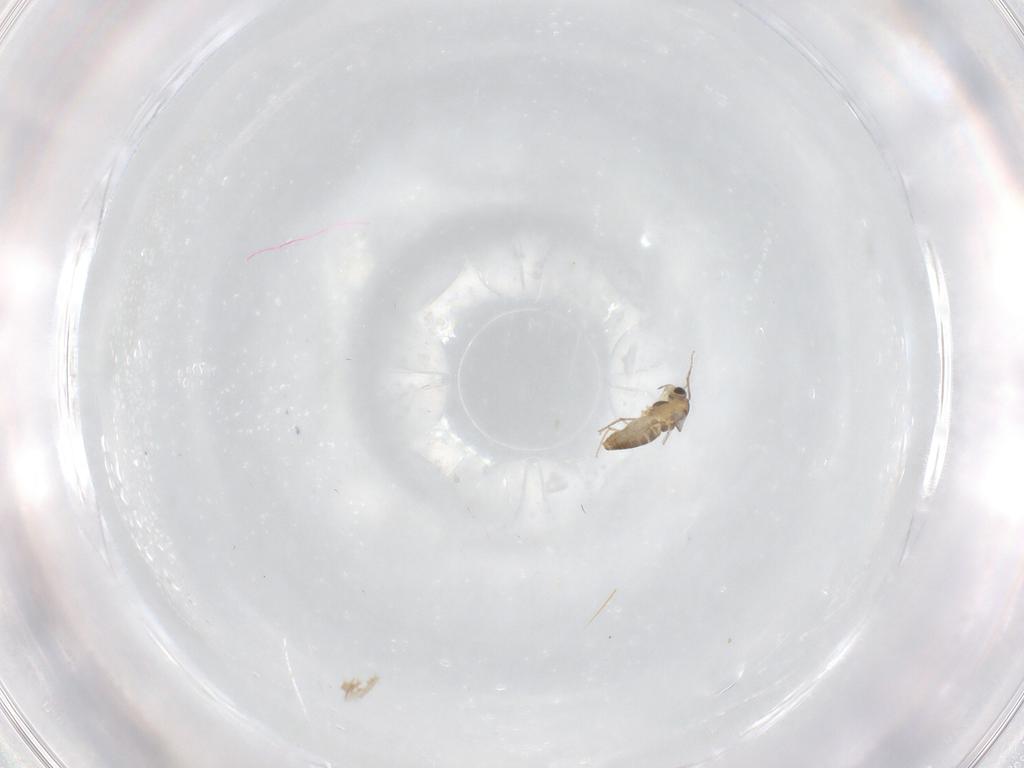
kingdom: Animalia
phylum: Arthropoda
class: Insecta
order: Diptera
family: Chironomidae
